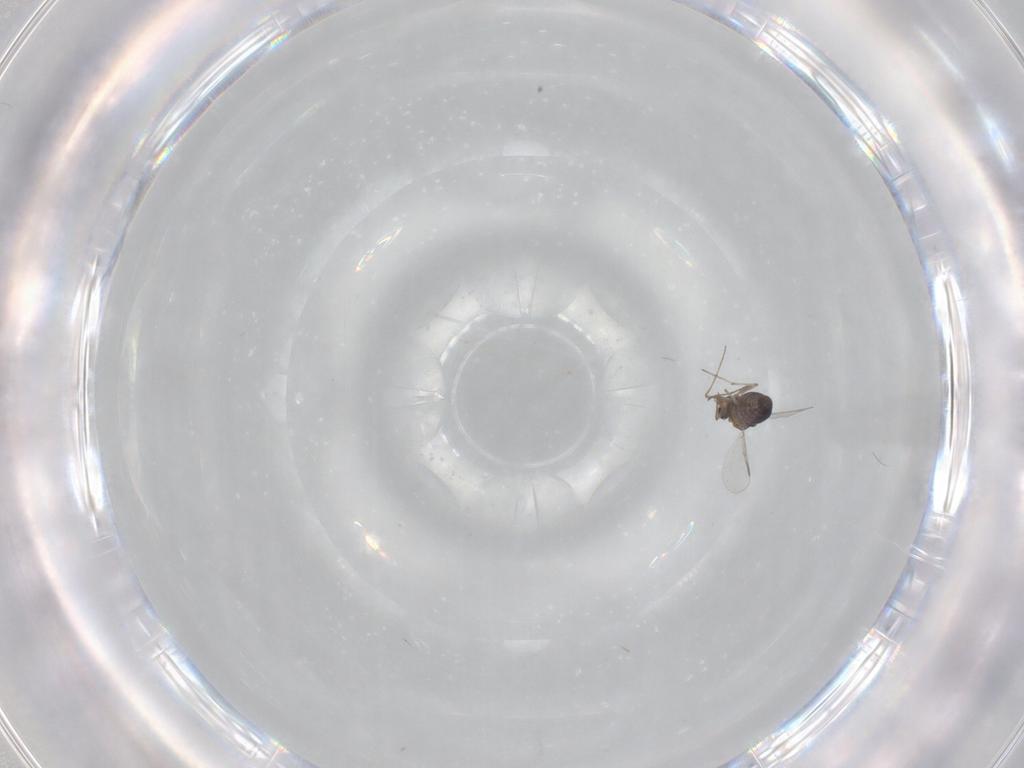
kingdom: Animalia
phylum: Arthropoda
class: Insecta
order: Diptera
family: Chironomidae
